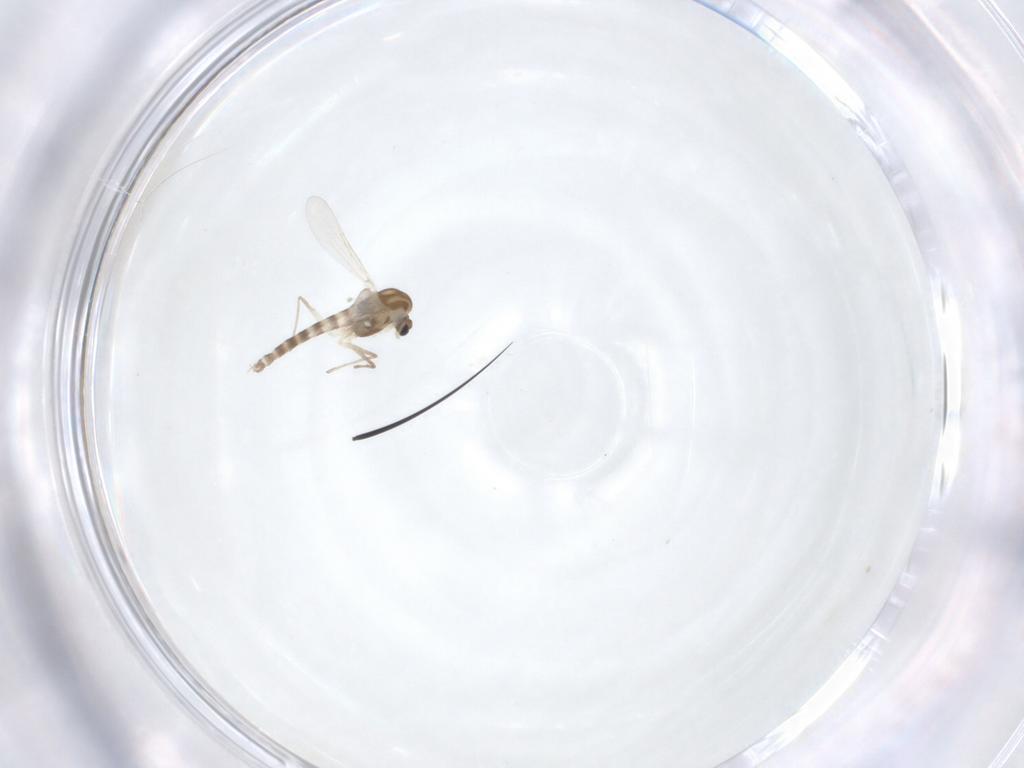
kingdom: Animalia
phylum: Arthropoda
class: Insecta
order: Diptera
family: Chironomidae
